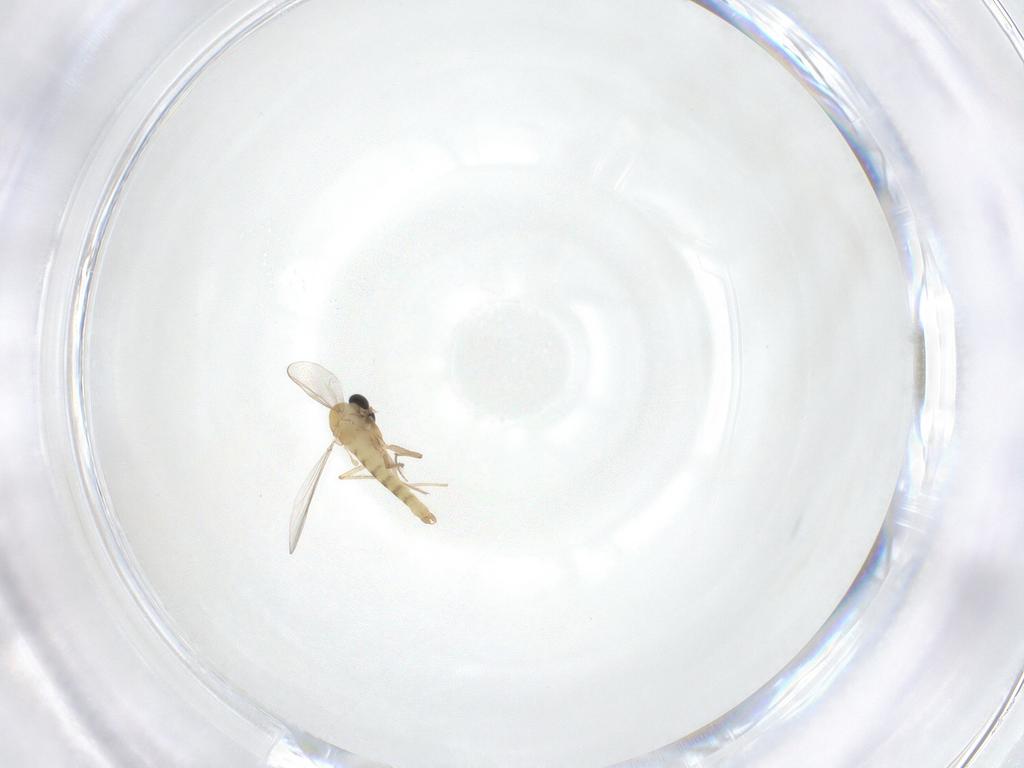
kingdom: Animalia
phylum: Arthropoda
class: Insecta
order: Diptera
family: Chironomidae
